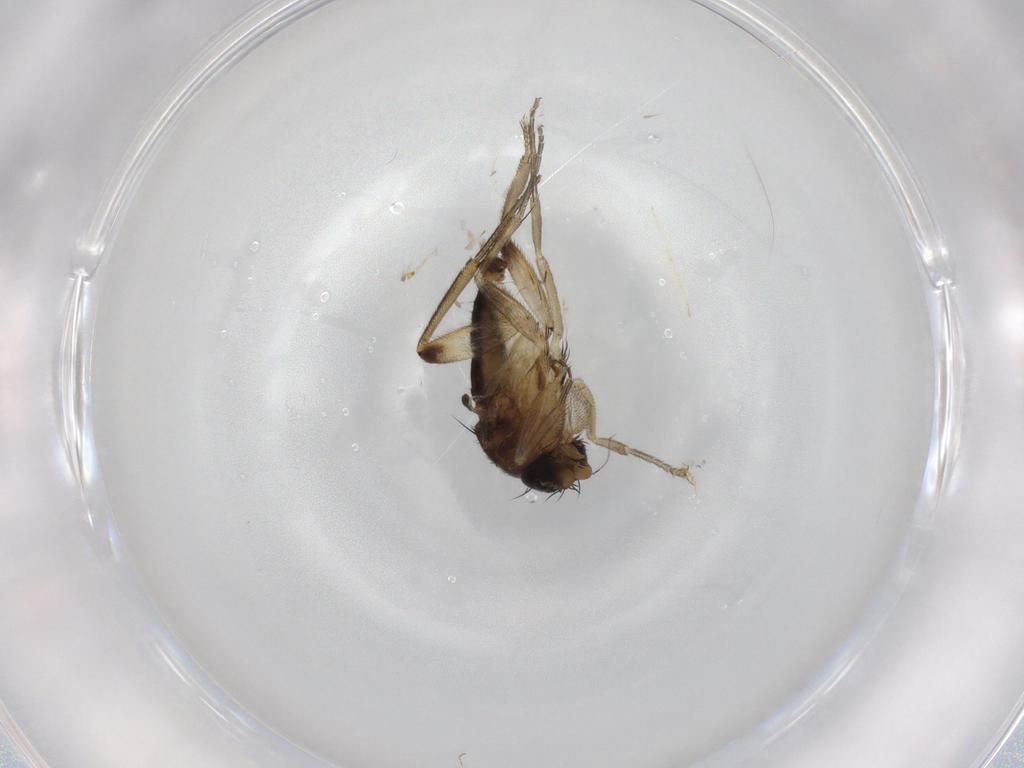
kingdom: Animalia
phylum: Arthropoda
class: Insecta
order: Diptera
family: Phoridae
